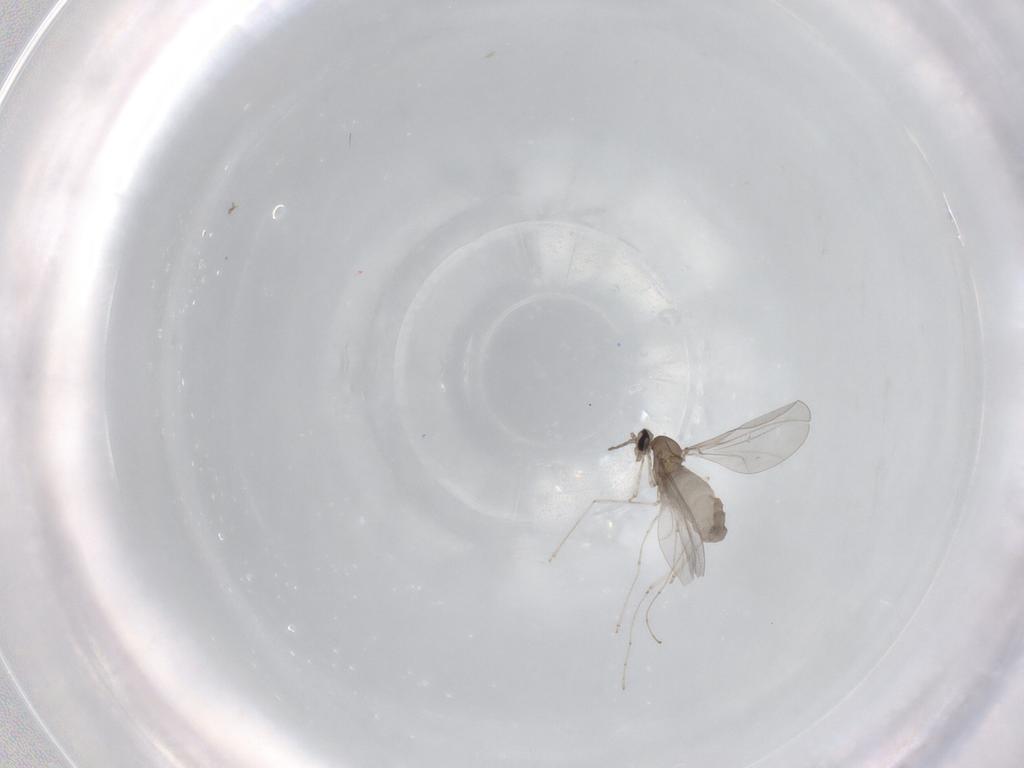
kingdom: Animalia
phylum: Arthropoda
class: Insecta
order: Diptera
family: Cecidomyiidae
